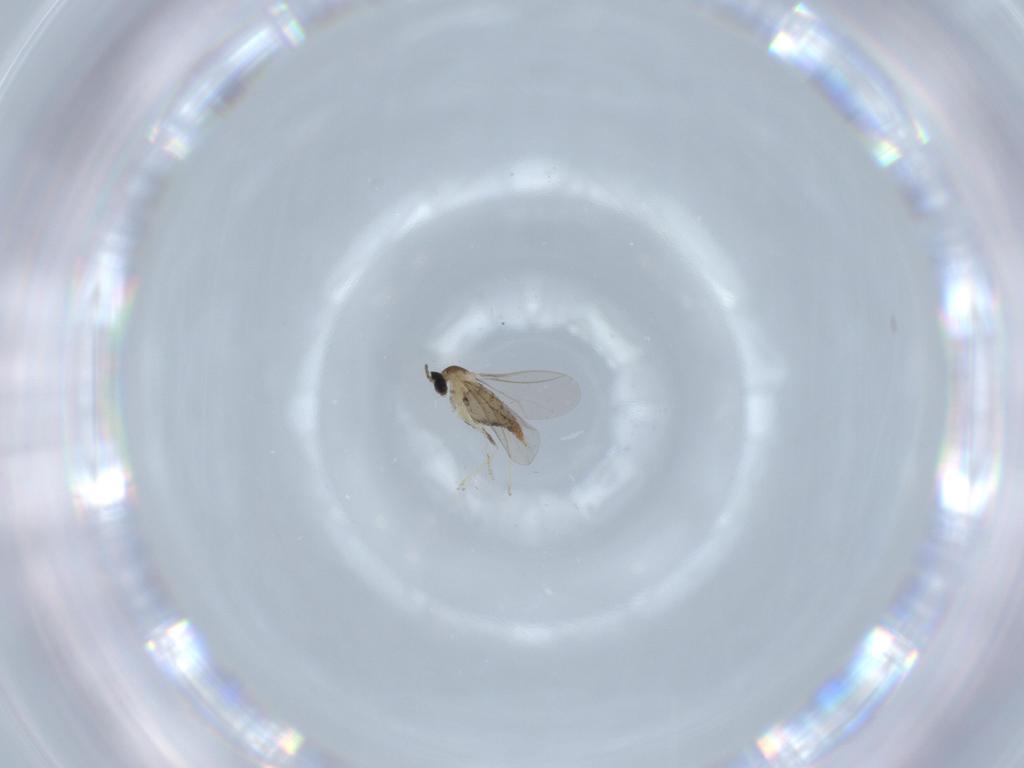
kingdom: Animalia
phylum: Arthropoda
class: Insecta
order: Diptera
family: Cecidomyiidae
